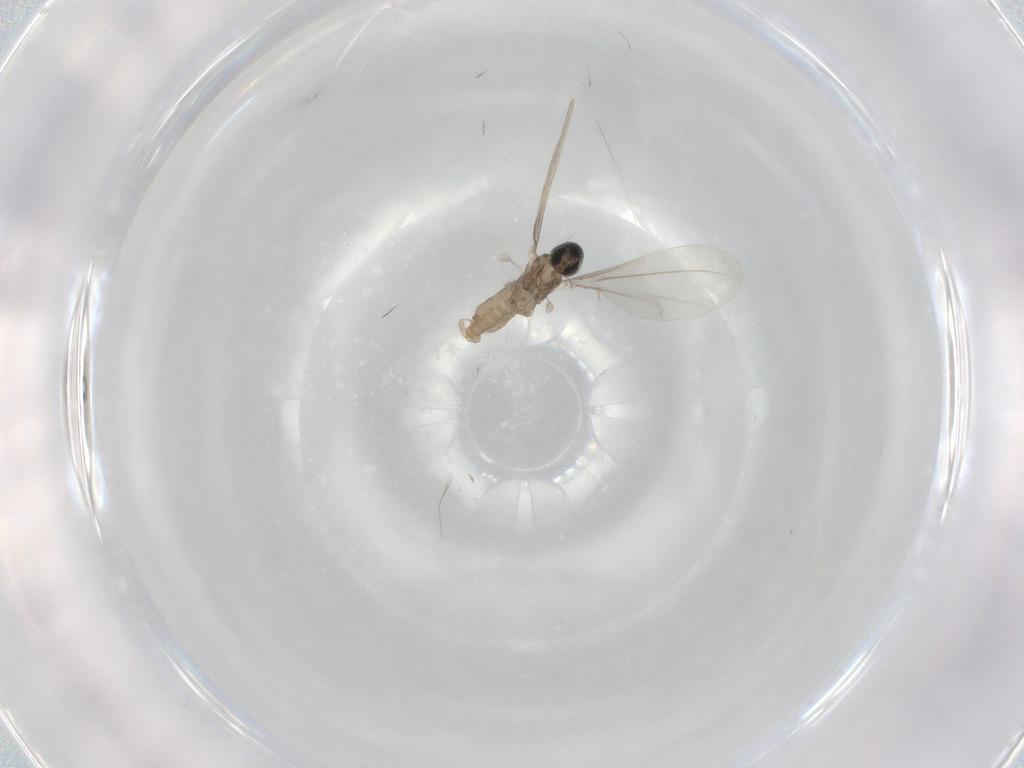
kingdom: Animalia
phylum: Arthropoda
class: Insecta
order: Diptera
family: Cecidomyiidae
